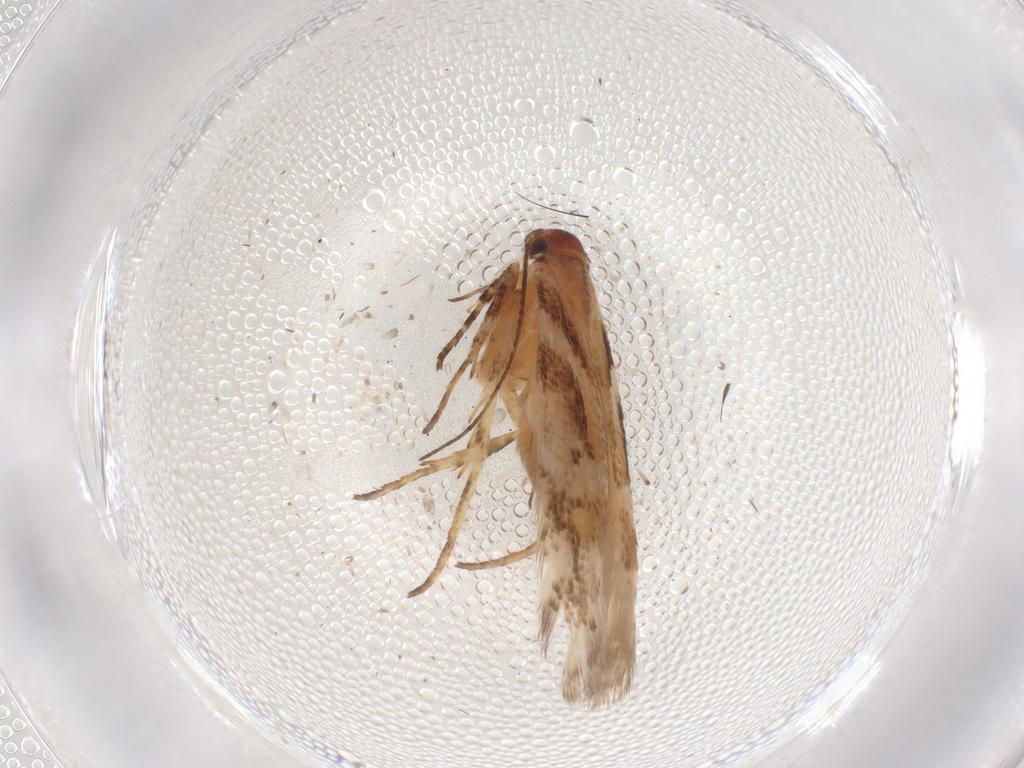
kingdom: Animalia
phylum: Arthropoda
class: Insecta
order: Lepidoptera
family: Gelechiidae
